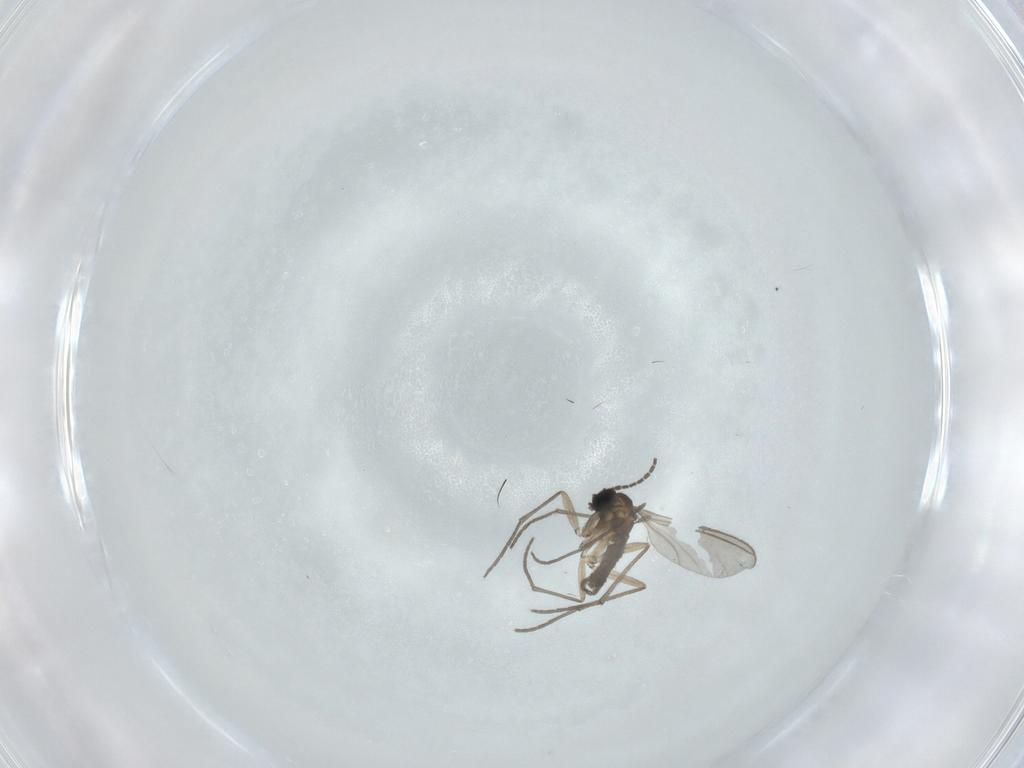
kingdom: Animalia
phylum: Arthropoda
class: Insecta
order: Diptera
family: Sciaridae
